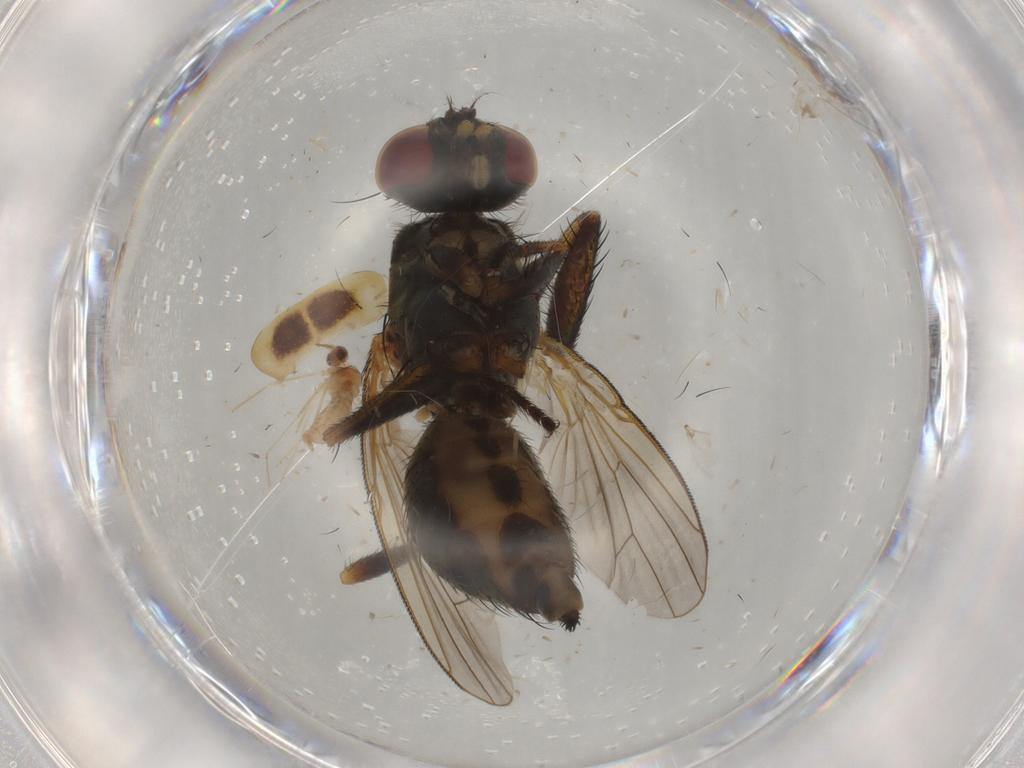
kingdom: Animalia
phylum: Arthropoda
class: Insecta
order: Diptera
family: Muscidae
